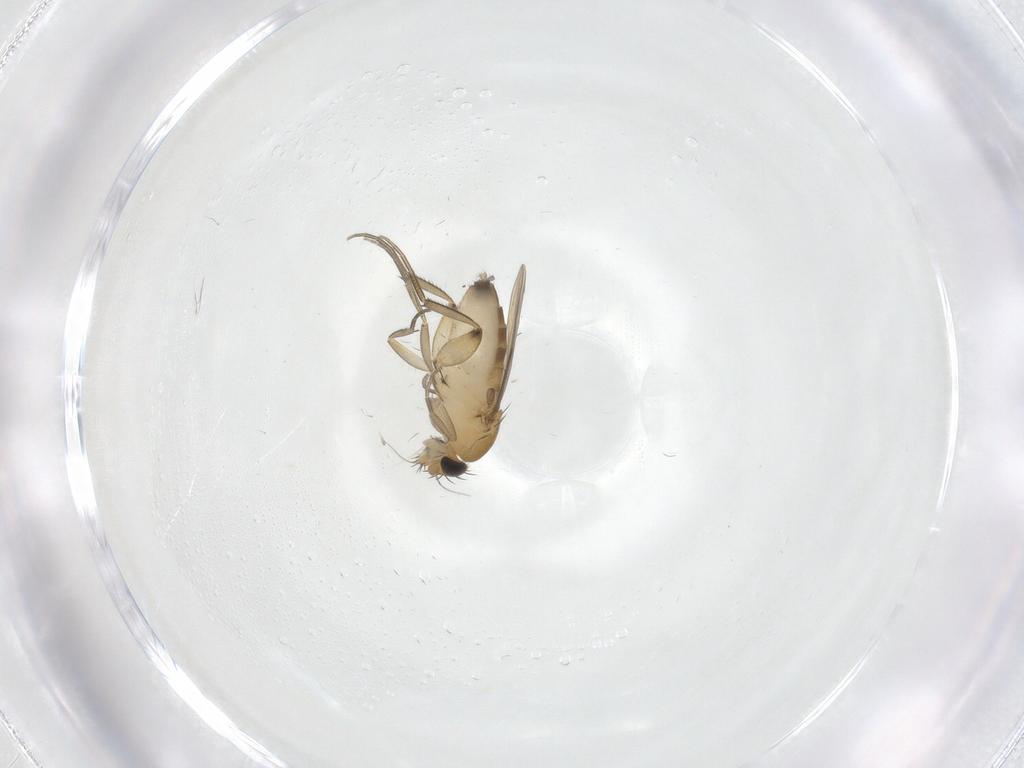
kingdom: Animalia
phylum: Arthropoda
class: Insecta
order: Diptera
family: Phoridae
